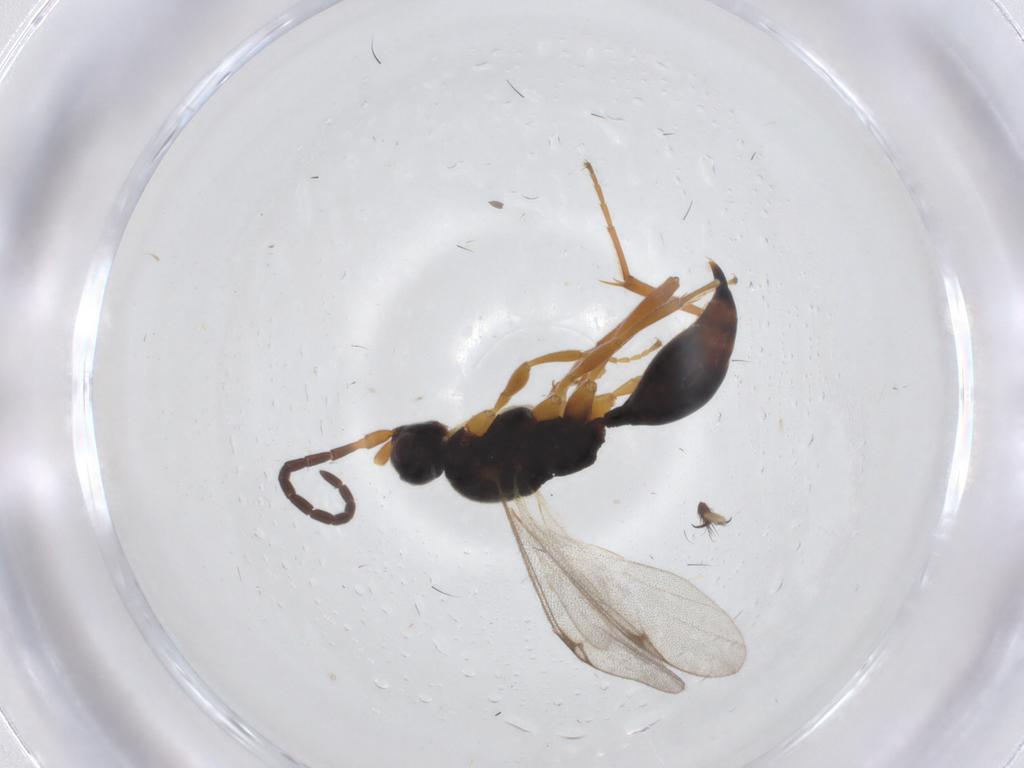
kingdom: Animalia
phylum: Arthropoda
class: Insecta
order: Hymenoptera
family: Proctotrupidae
